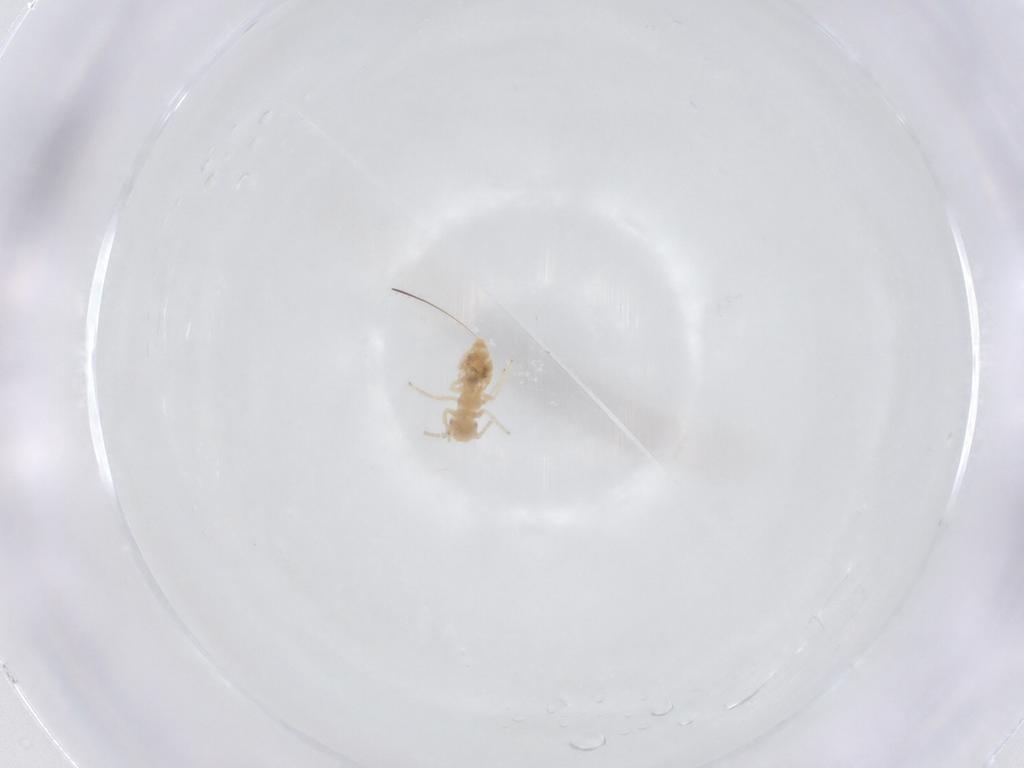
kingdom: Animalia
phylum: Arthropoda
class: Insecta
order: Psocodea
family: Amphipsocidae
